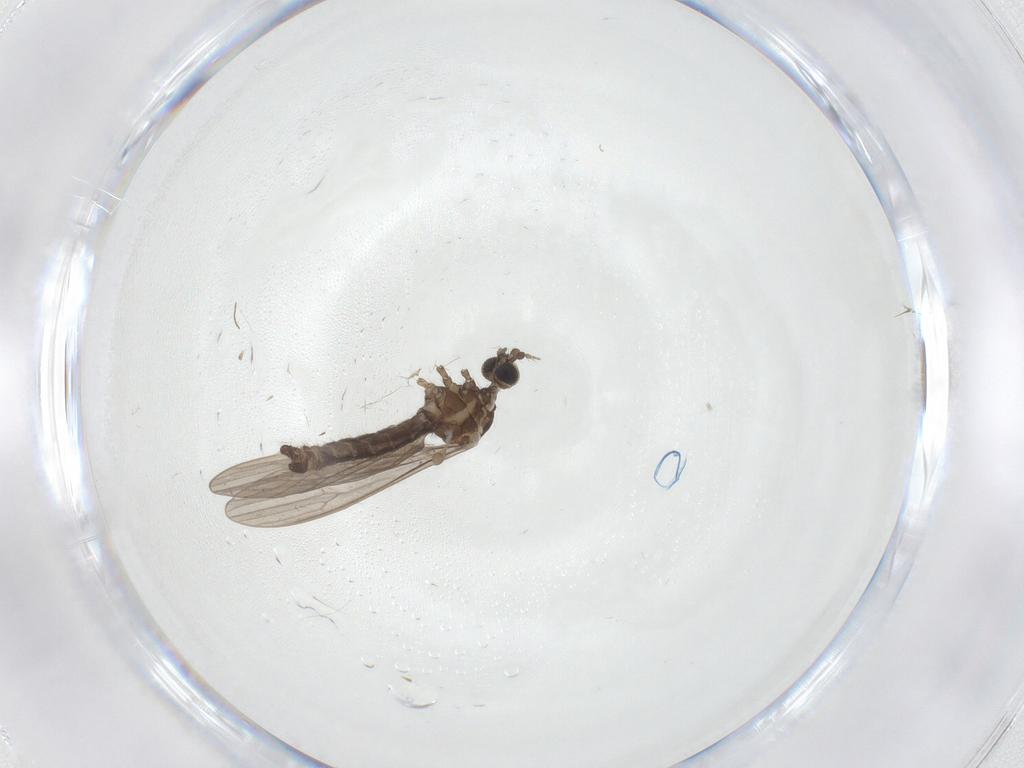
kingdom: Animalia
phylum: Arthropoda
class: Insecta
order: Diptera
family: Limoniidae
